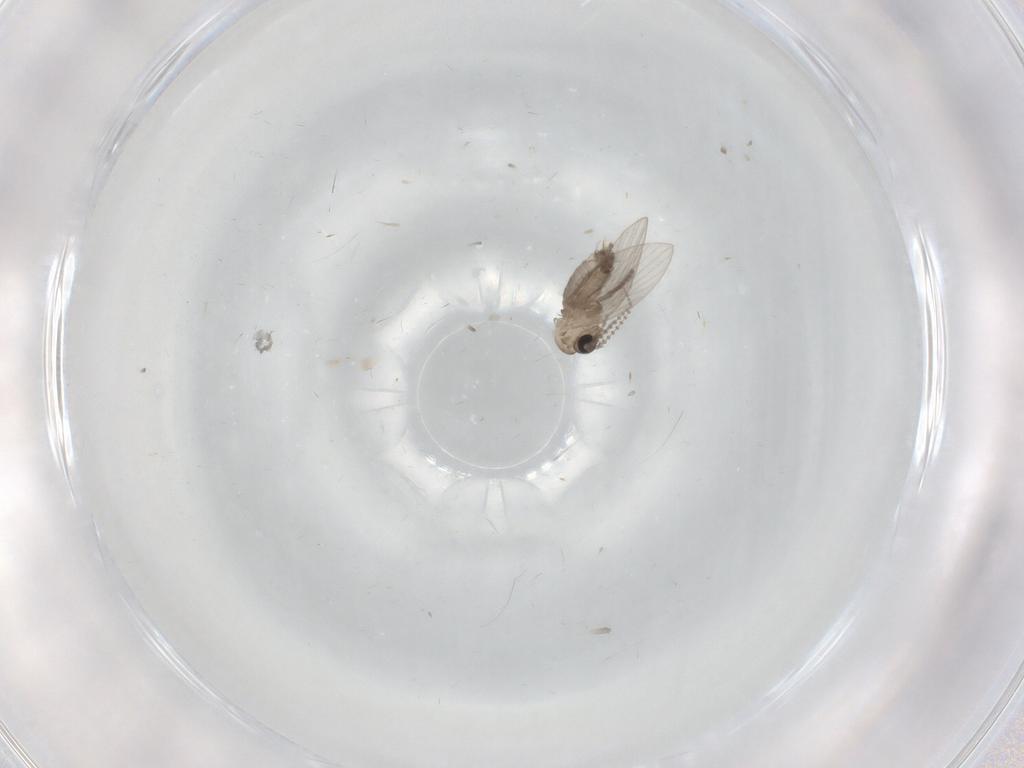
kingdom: Animalia
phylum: Arthropoda
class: Insecta
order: Diptera
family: Psychodidae
